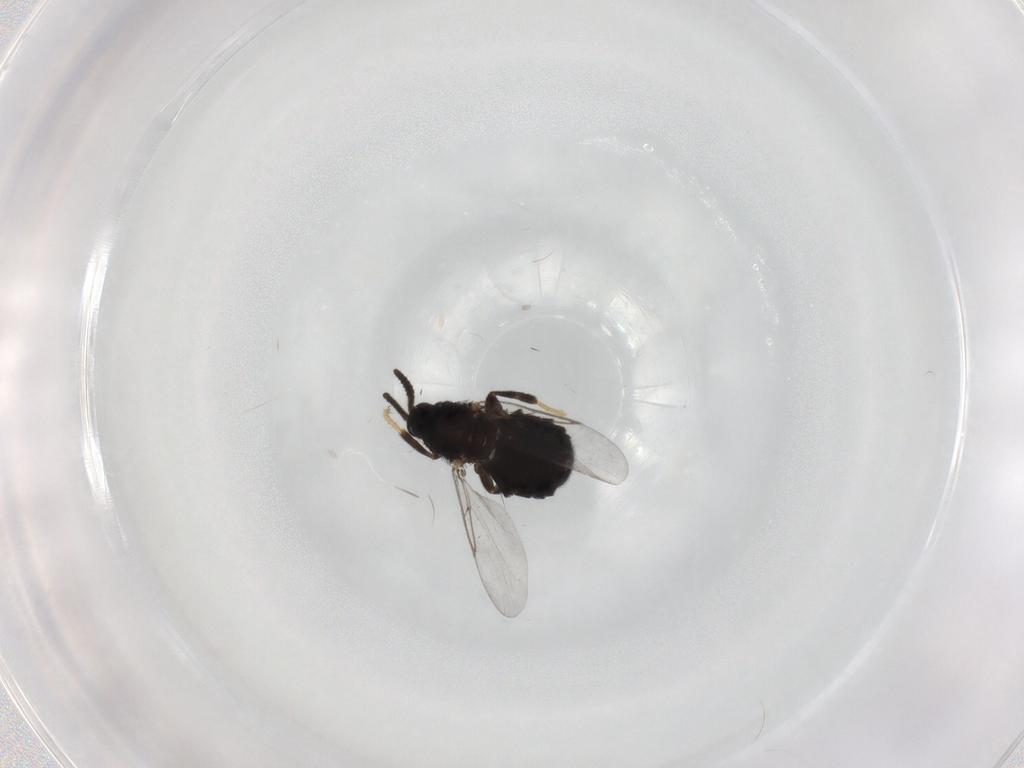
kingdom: Animalia
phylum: Arthropoda
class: Insecta
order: Diptera
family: Scatopsidae
